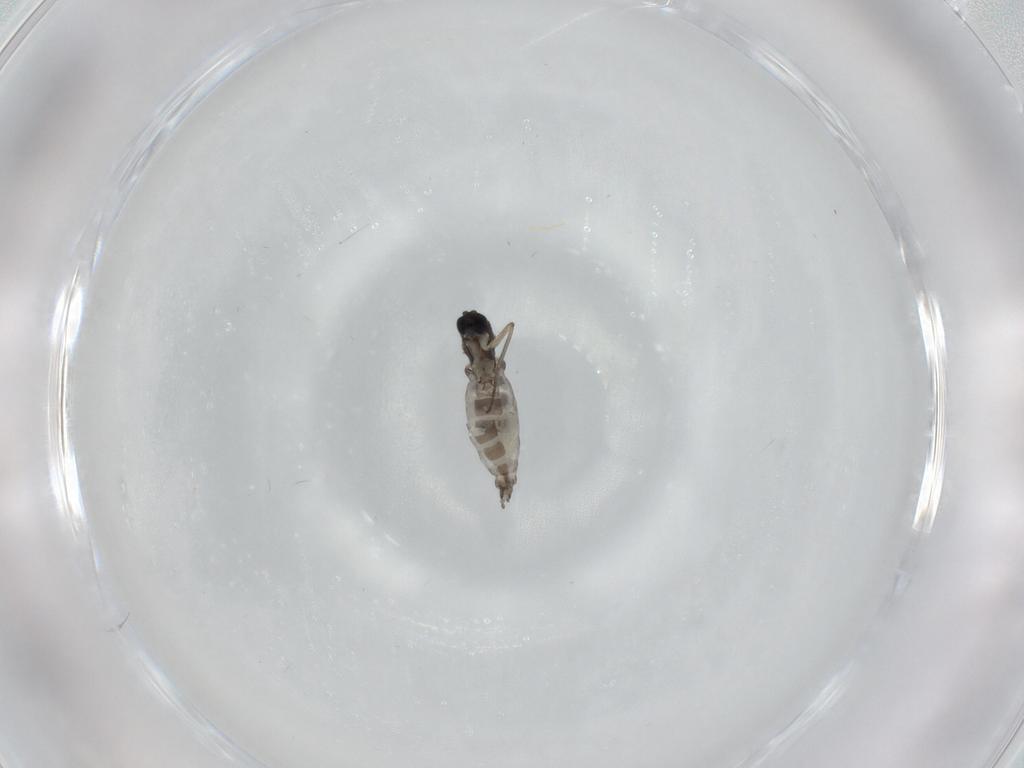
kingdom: Animalia
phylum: Arthropoda
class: Insecta
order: Diptera
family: Sciaridae
